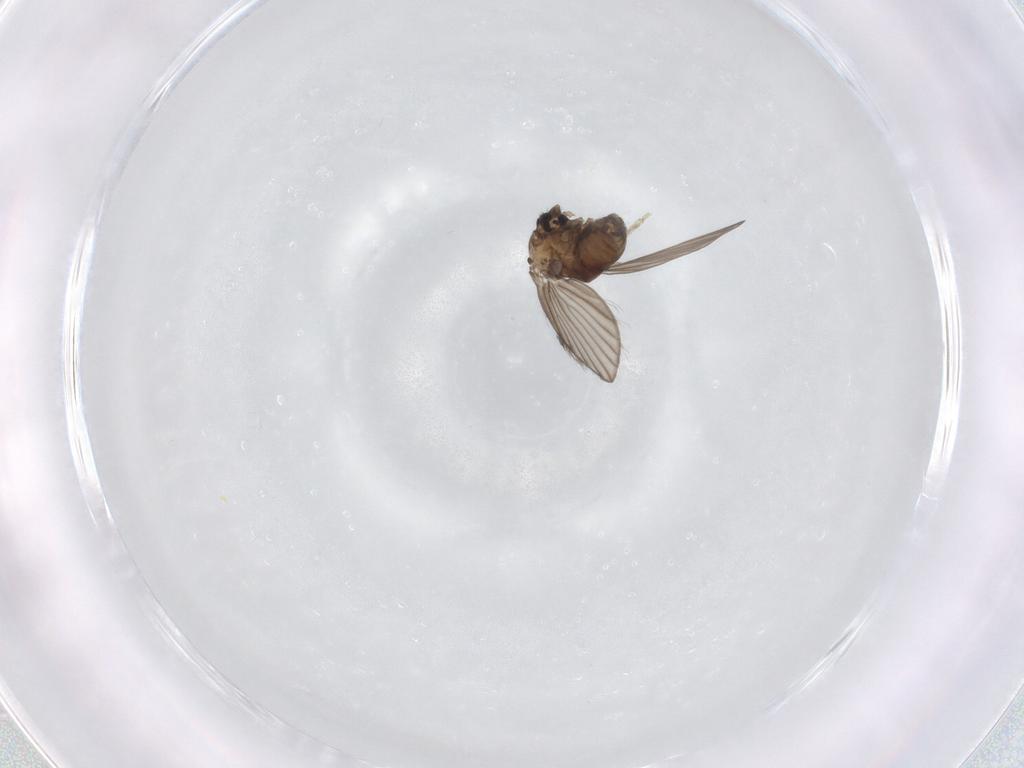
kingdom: Animalia
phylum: Arthropoda
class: Insecta
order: Diptera
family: Psychodidae
